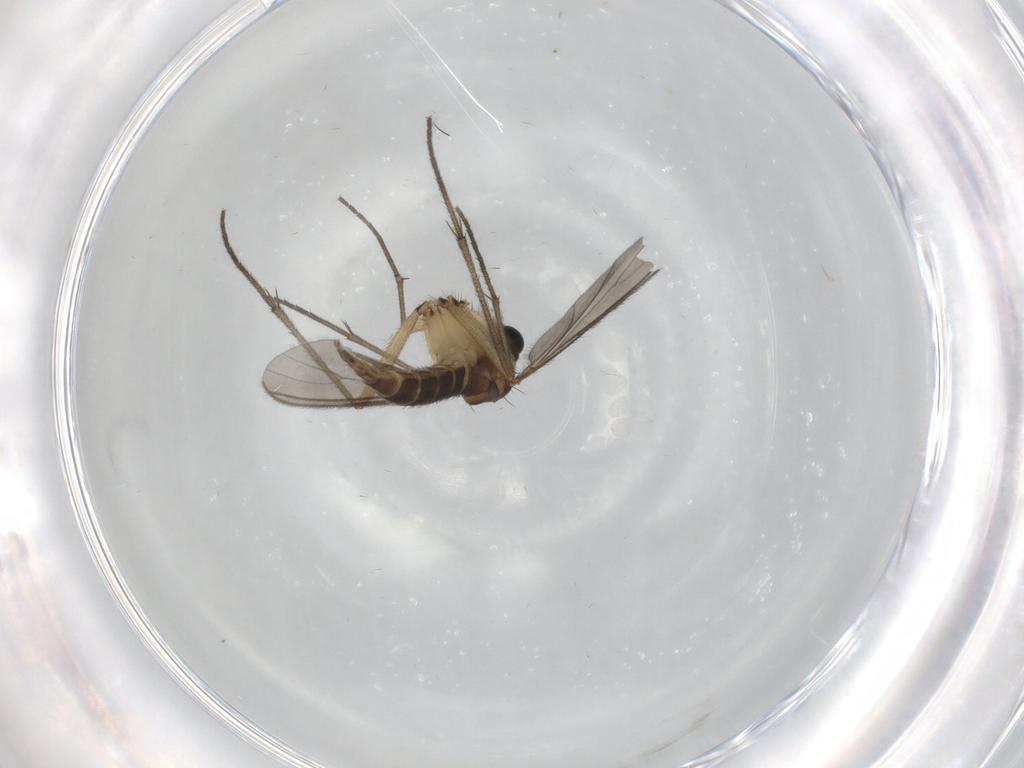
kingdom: Animalia
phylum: Arthropoda
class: Insecta
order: Diptera
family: Sciaridae
